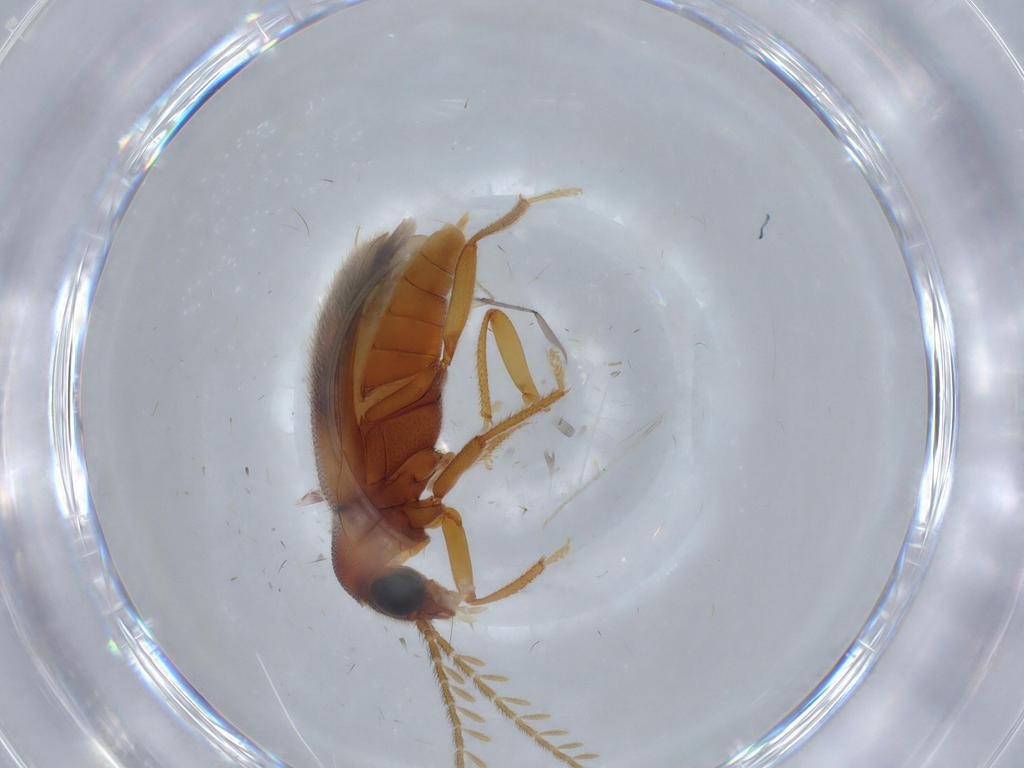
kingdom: Animalia
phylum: Arthropoda
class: Insecta
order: Coleoptera
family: Ptilodactylidae
